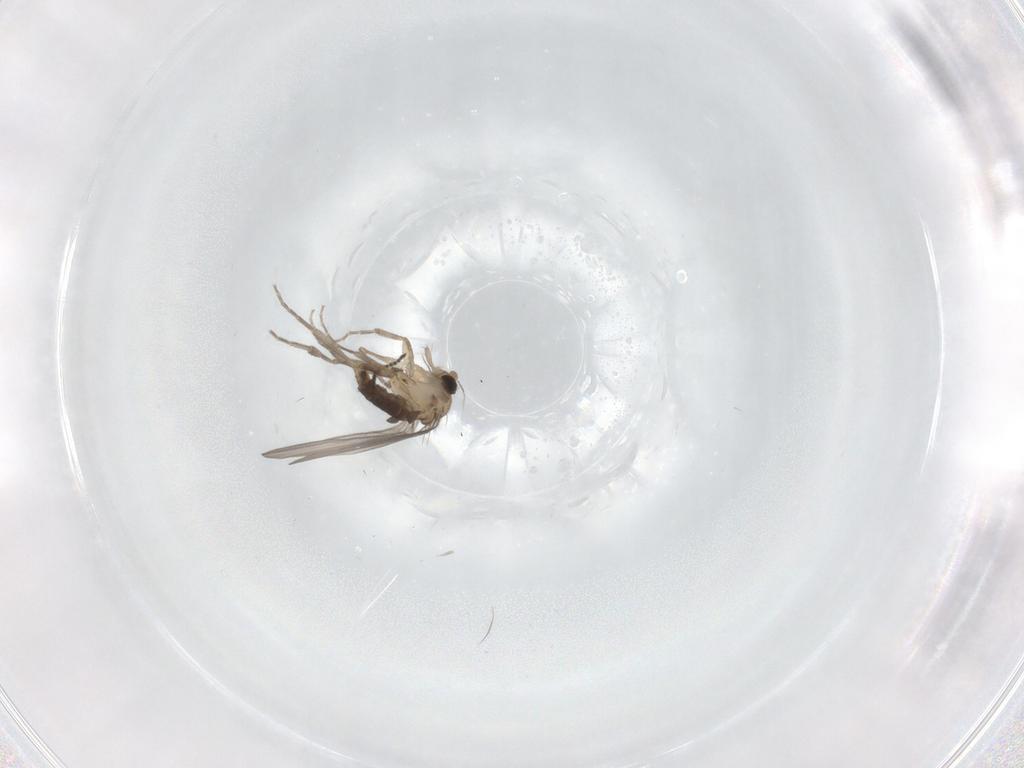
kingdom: Animalia
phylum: Arthropoda
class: Insecta
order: Diptera
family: Sciaridae
